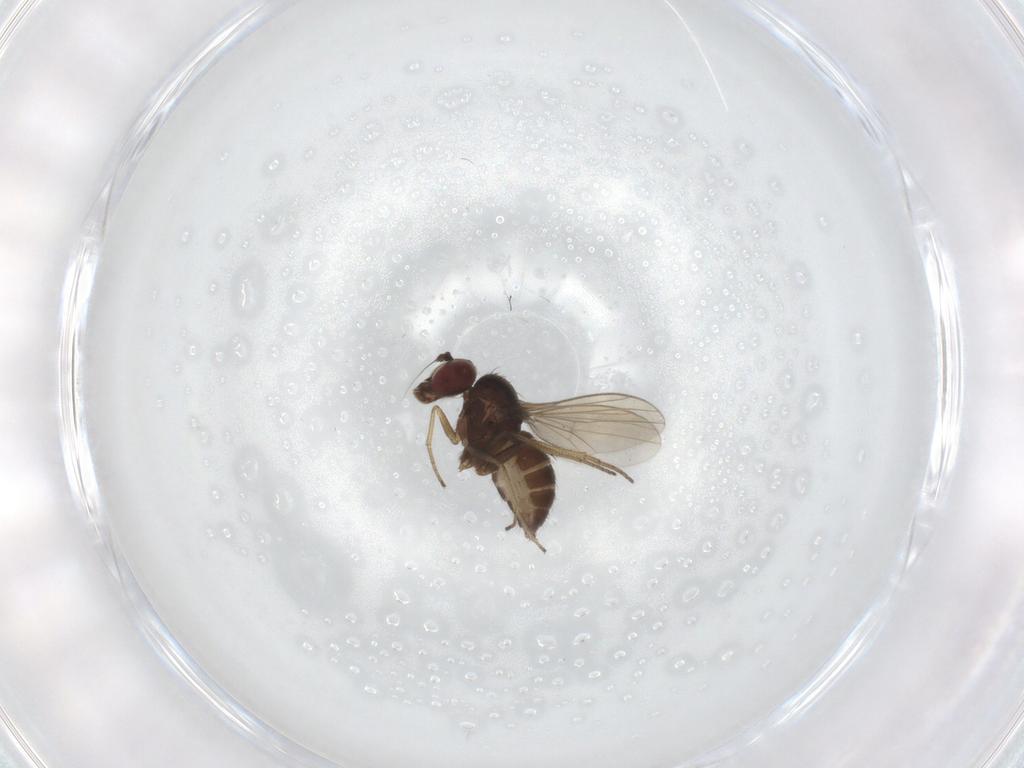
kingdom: Animalia
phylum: Arthropoda
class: Insecta
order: Diptera
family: Dolichopodidae
